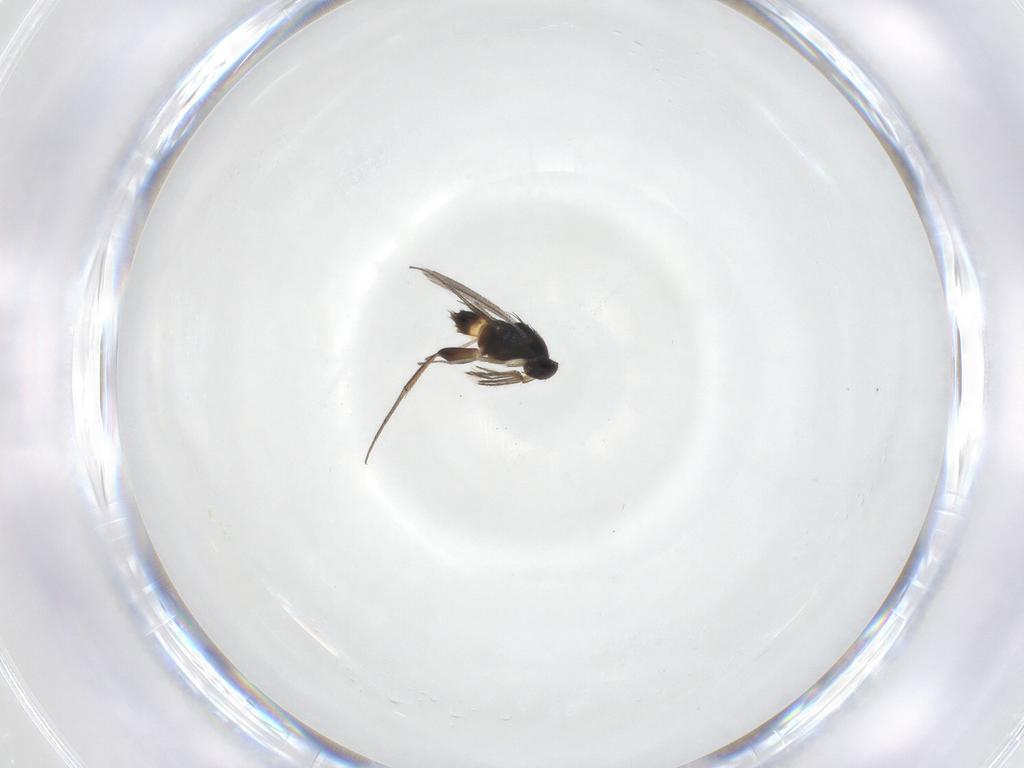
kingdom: Animalia
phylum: Arthropoda
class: Insecta
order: Hymenoptera
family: Eulophidae
